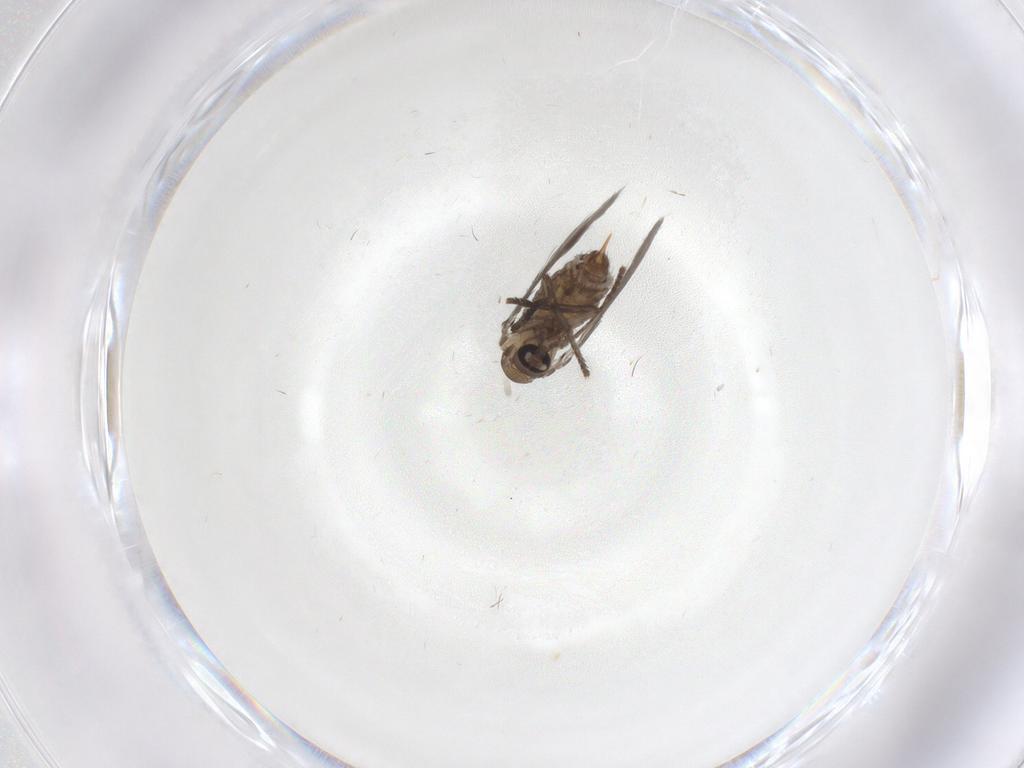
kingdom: Animalia
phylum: Arthropoda
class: Insecta
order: Diptera
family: Psychodidae
